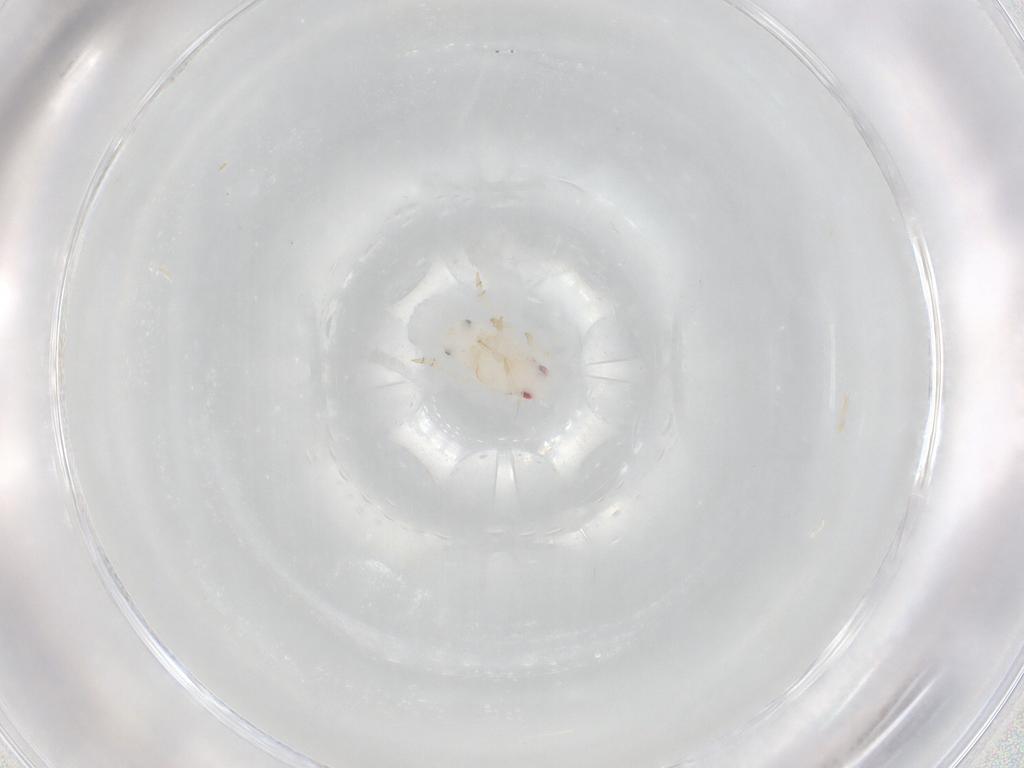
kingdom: Animalia
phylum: Arthropoda
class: Insecta
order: Hemiptera
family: Flatidae
